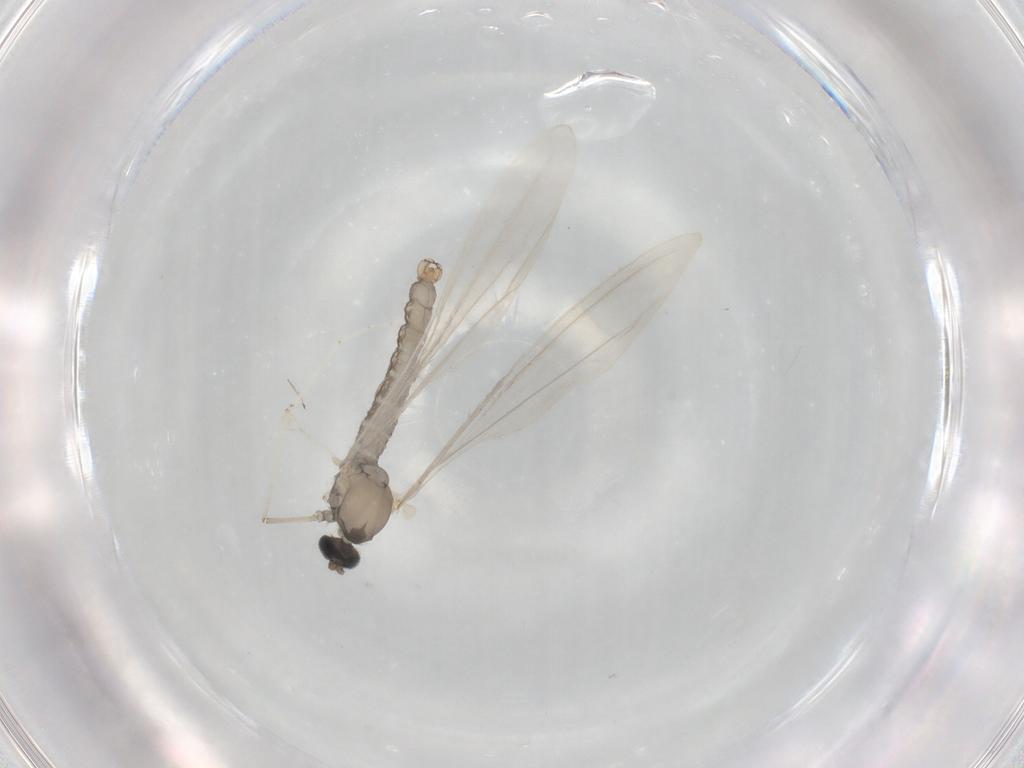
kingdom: Animalia
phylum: Arthropoda
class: Insecta
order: Diptera
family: Cecidomyiidae
